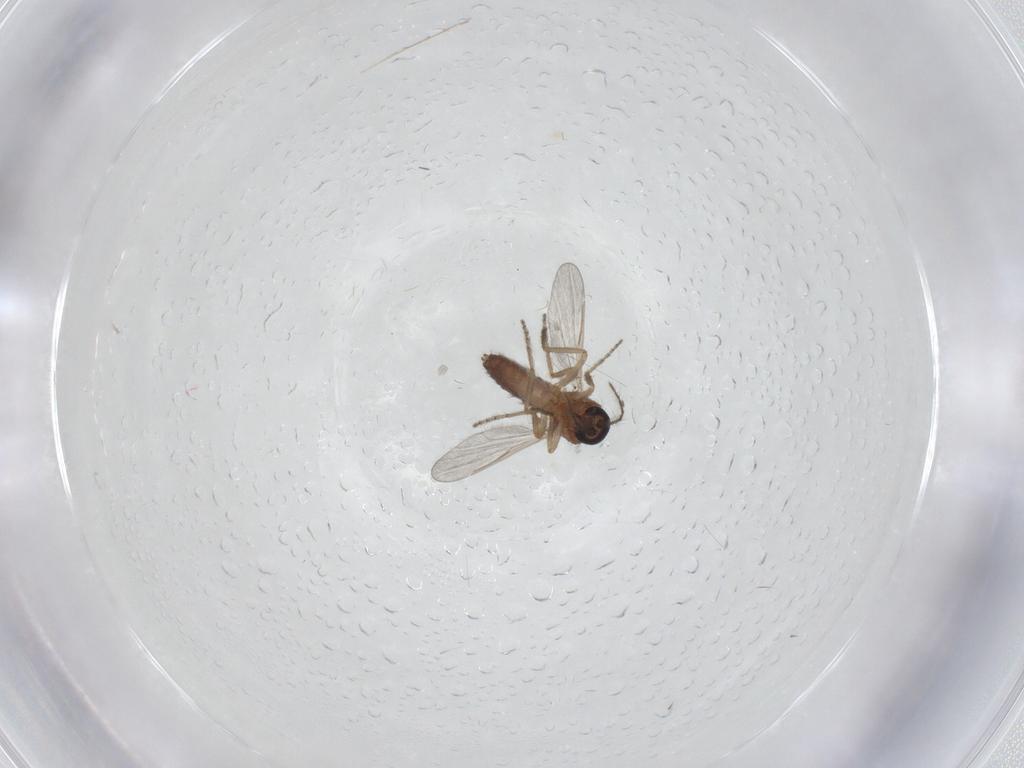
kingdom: Animalia
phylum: Arthropoda
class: Insecta
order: Diptera
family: Ceratopogonidae
